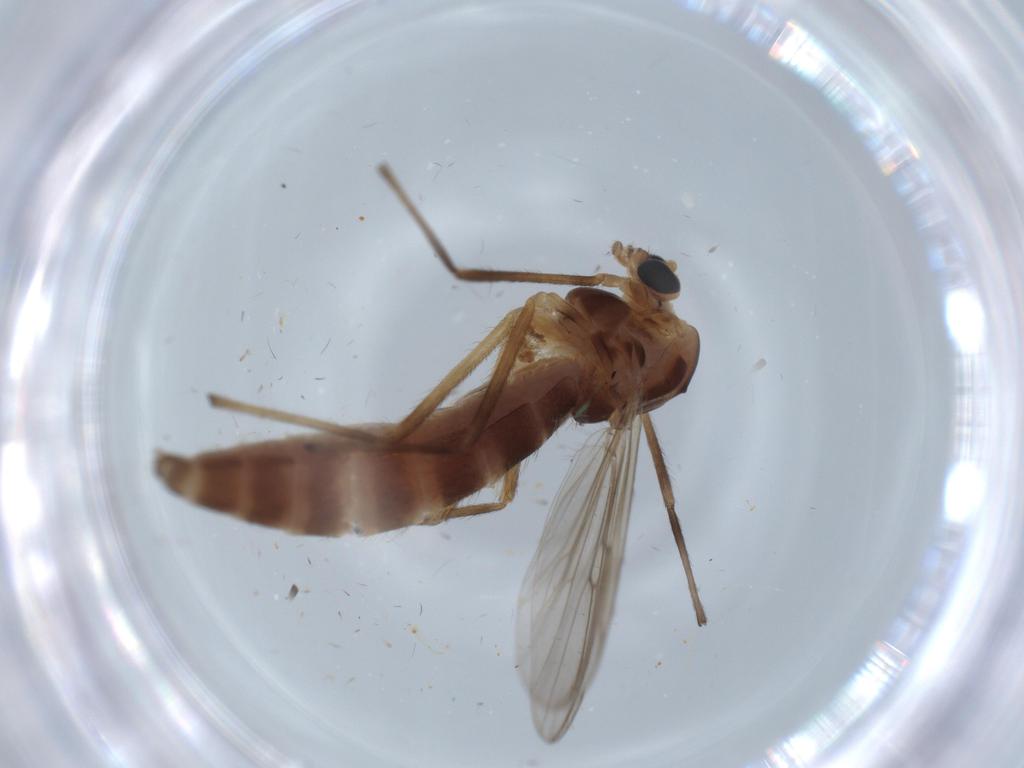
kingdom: Animalia
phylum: Arthropoda
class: Insecta
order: Diptera
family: Chironomidae
